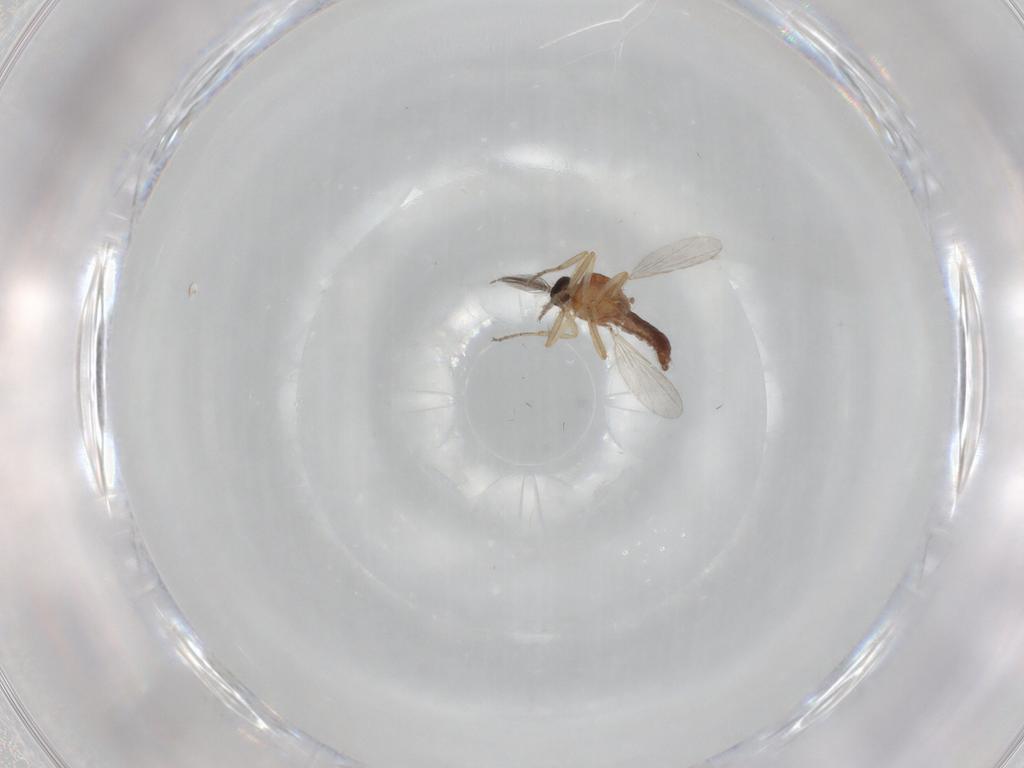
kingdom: Animalia
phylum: Arthropoda
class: Insecta
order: Diptera
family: Ceratopogonidae
